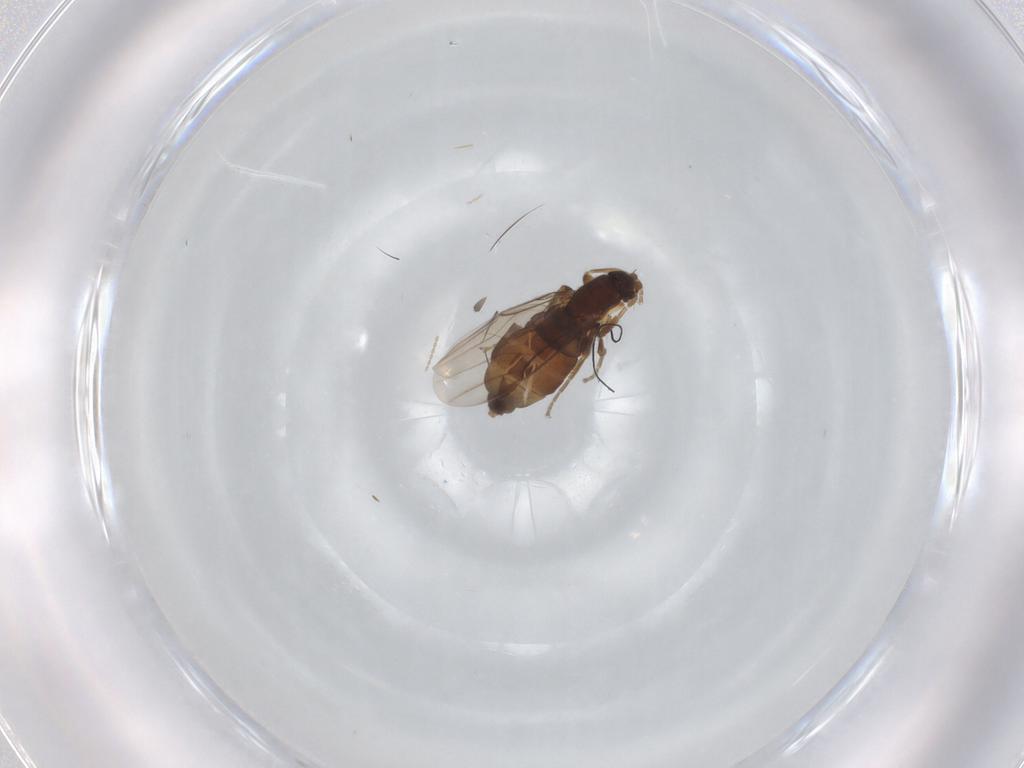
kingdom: Animalia
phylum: Arthropoda
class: Insecta
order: Diptera
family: Phoridae
